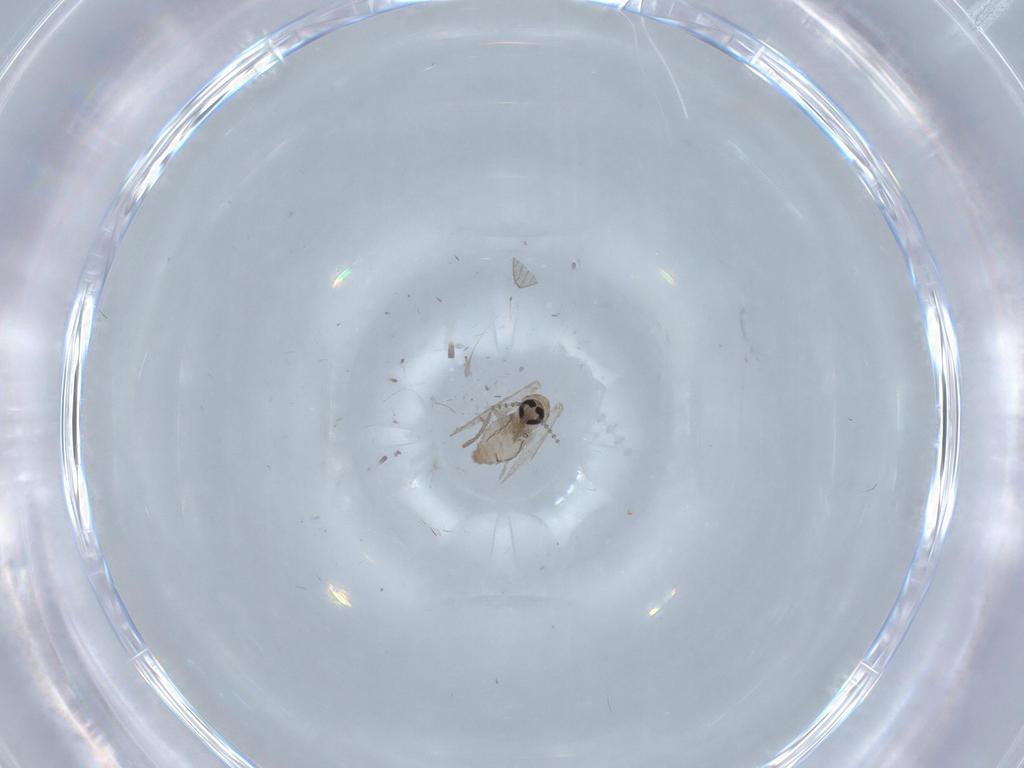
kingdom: Animalia
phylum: Arthropoda
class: Insecta
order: Diptera
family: Psychodidae
